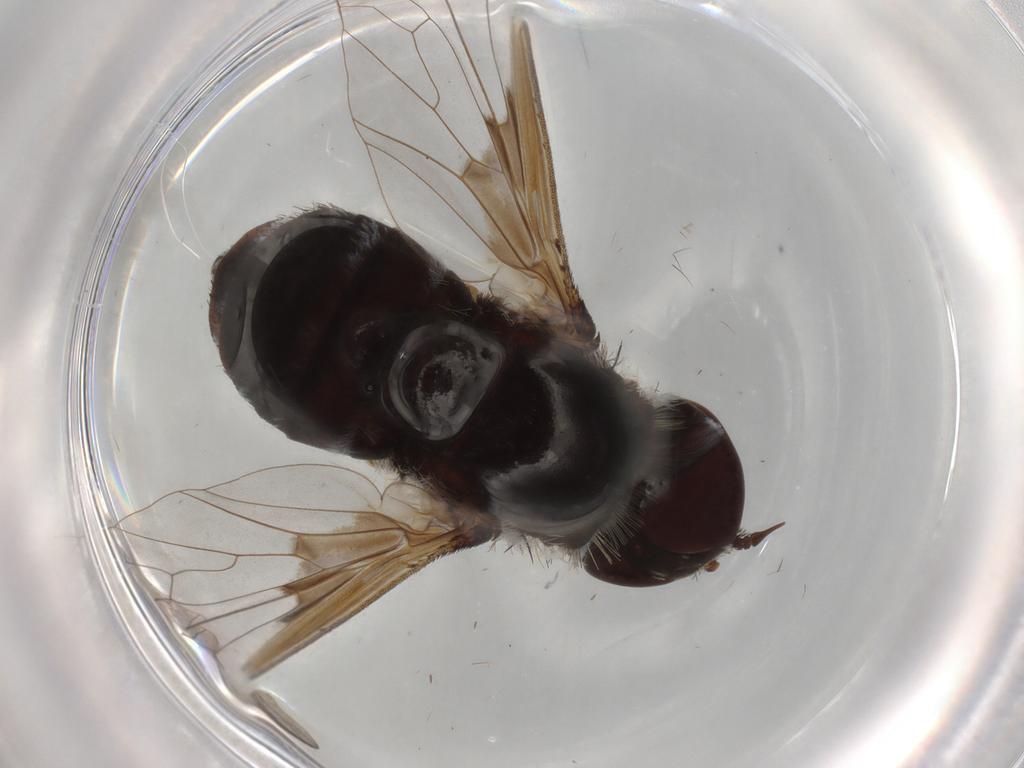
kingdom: Animalia
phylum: Arthropoda
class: Insecta
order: Diptera
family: Bombyliidae
